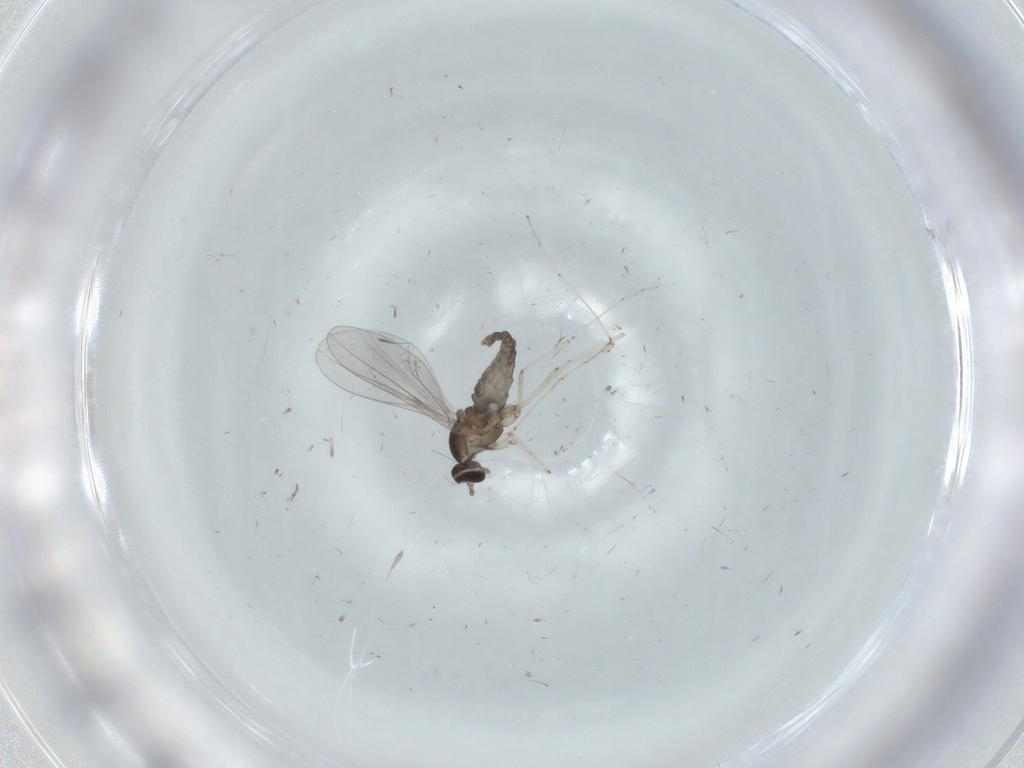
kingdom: Animalia
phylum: Arthropoda
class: Insecta
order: Diptera
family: Cecidomyiidae
